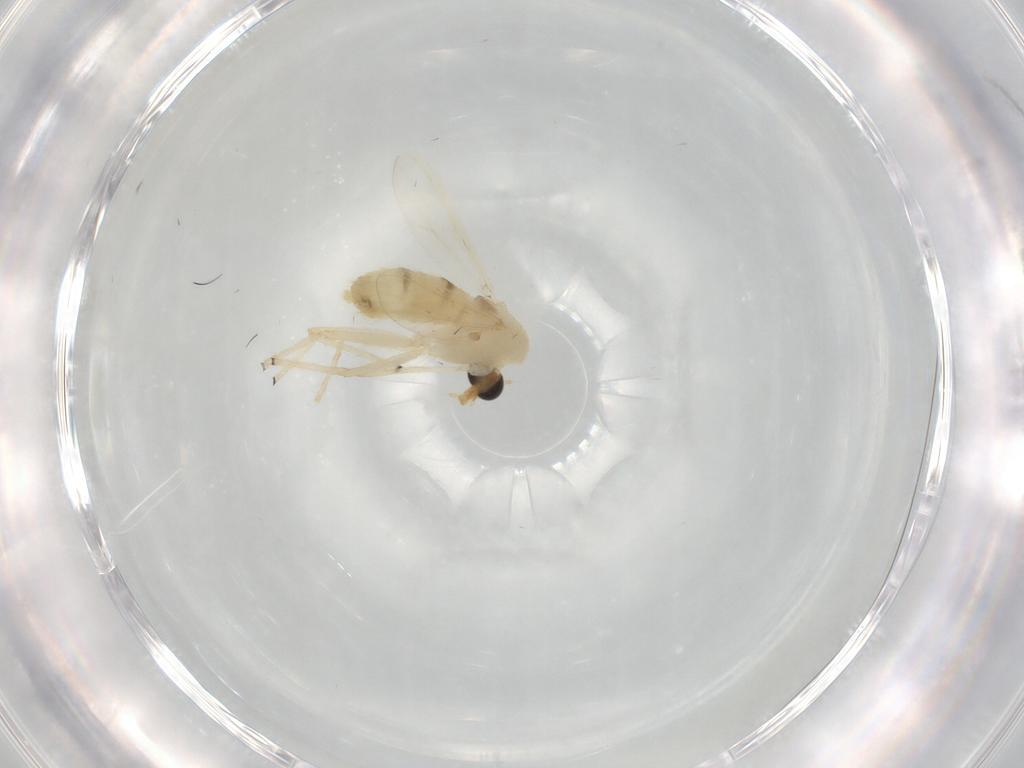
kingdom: Animalia
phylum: Arthropoda
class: Insecta
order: Diptera
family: Chironomidae
